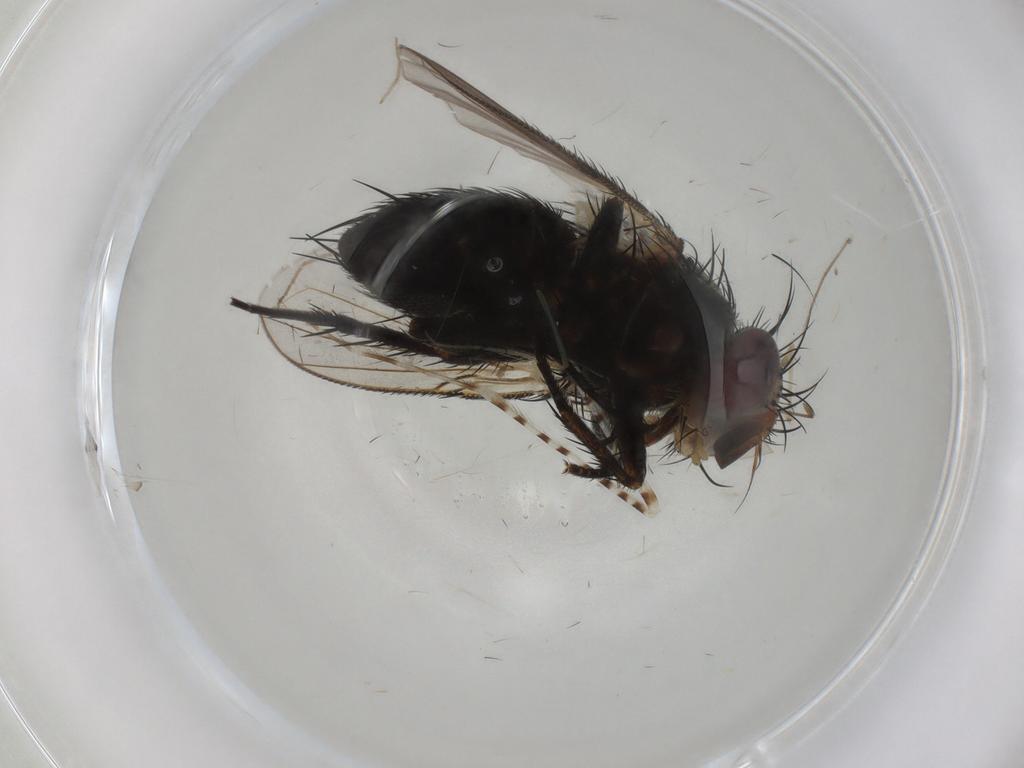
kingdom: Animalia
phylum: Arthropoda
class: Insecta
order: Diptera
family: Tachinidae
